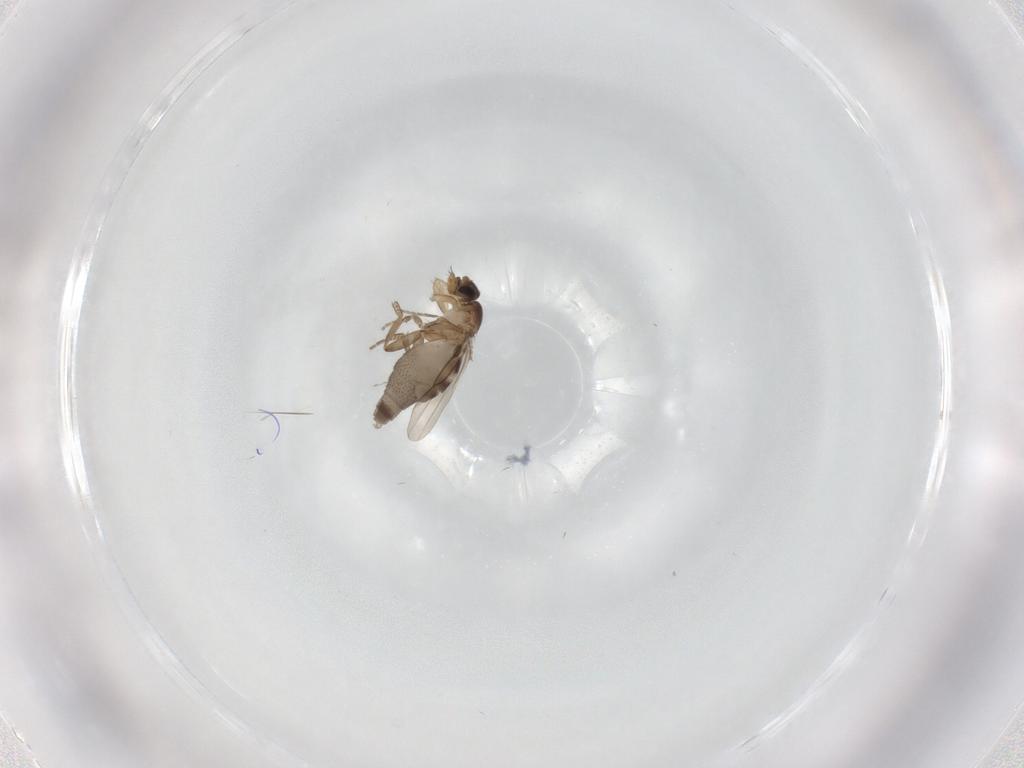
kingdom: Animalia
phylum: Arthropoda
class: Insecta
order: Diptera
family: Phoridae
